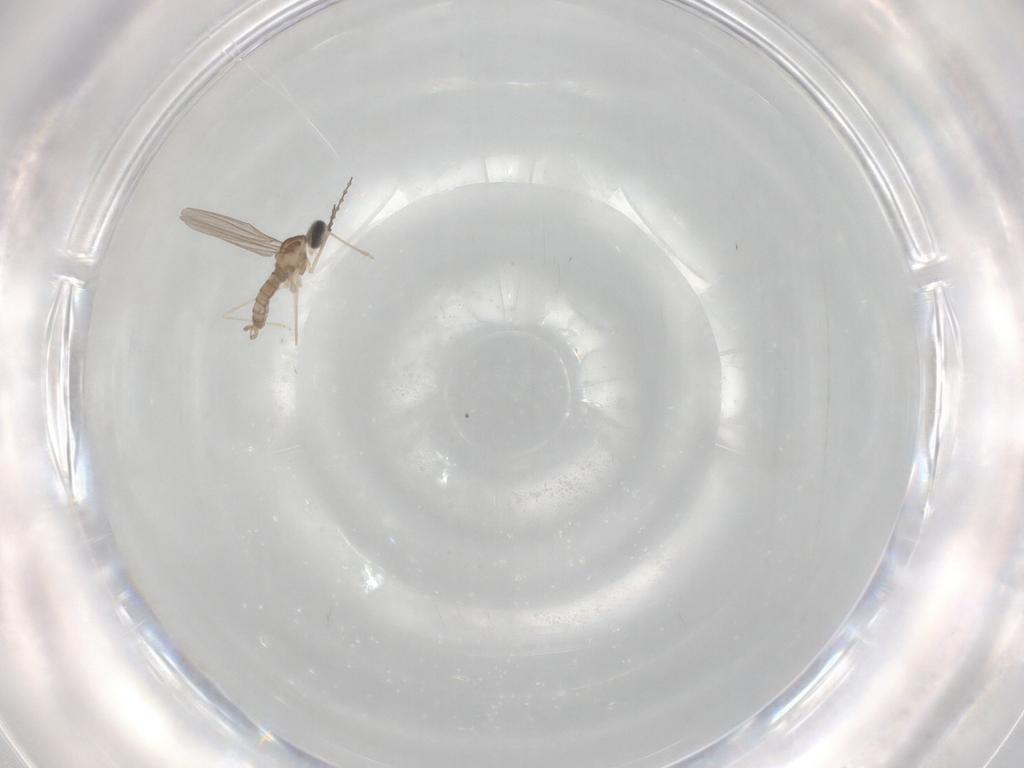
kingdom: Animalia
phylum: Arthropoda
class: Insecta
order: Diptera
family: Cecidomyiidae
